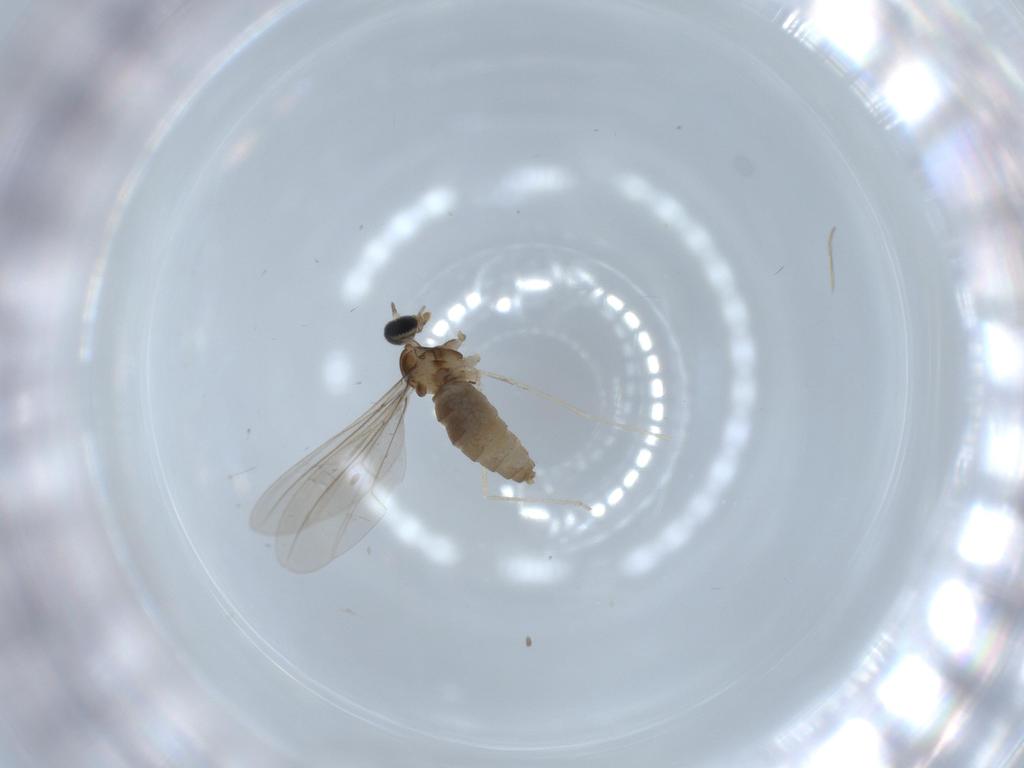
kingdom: Animalia
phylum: Arthropoda
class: Insecta
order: Diptera
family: Cecidomyiidae
